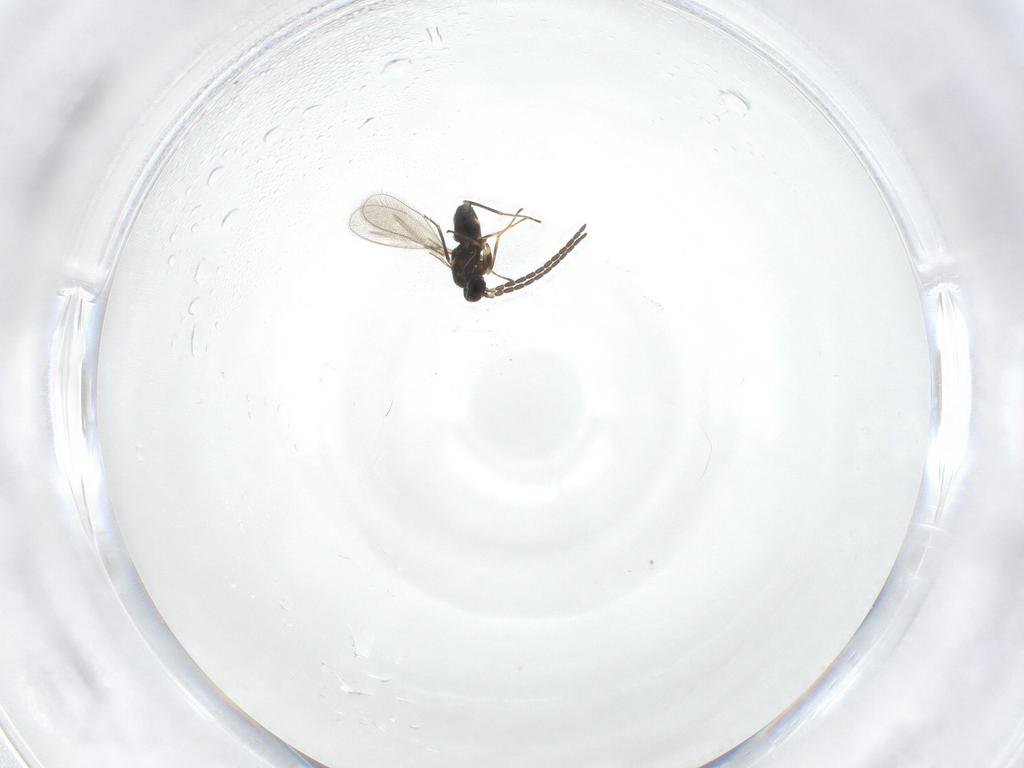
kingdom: Animalia
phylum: Arthropoda
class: Insecta
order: Hymenoptera
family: Mymaridae
